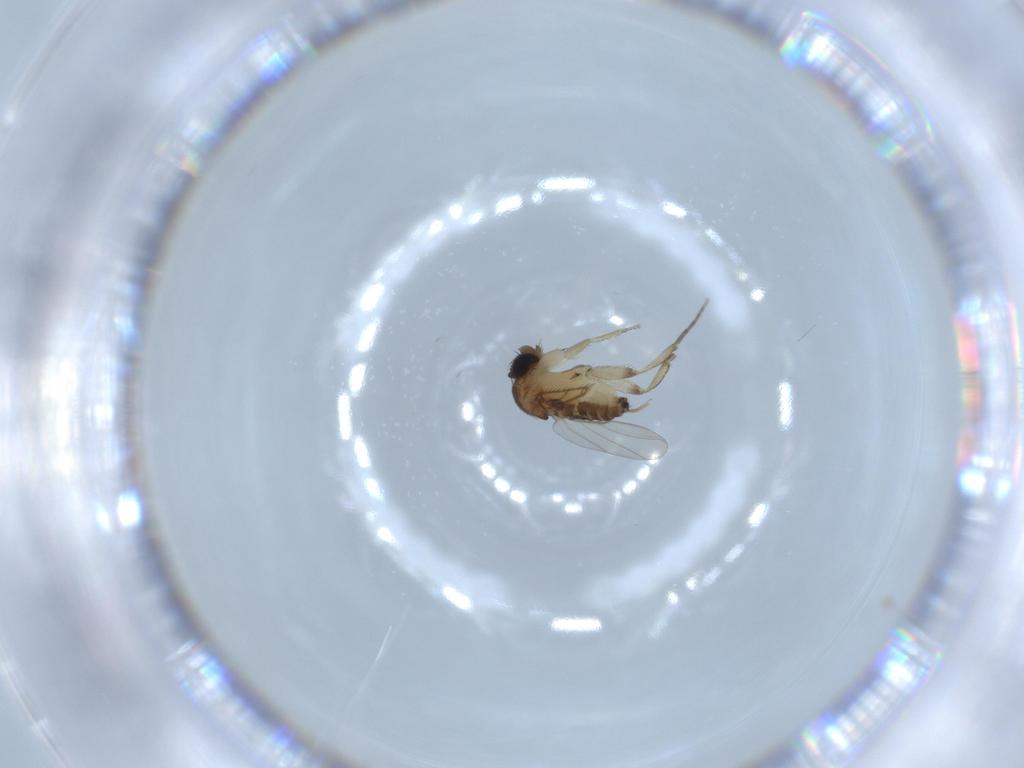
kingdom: Animalia
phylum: Arthropoda
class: Insecta
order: Diptera
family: Phoridae
